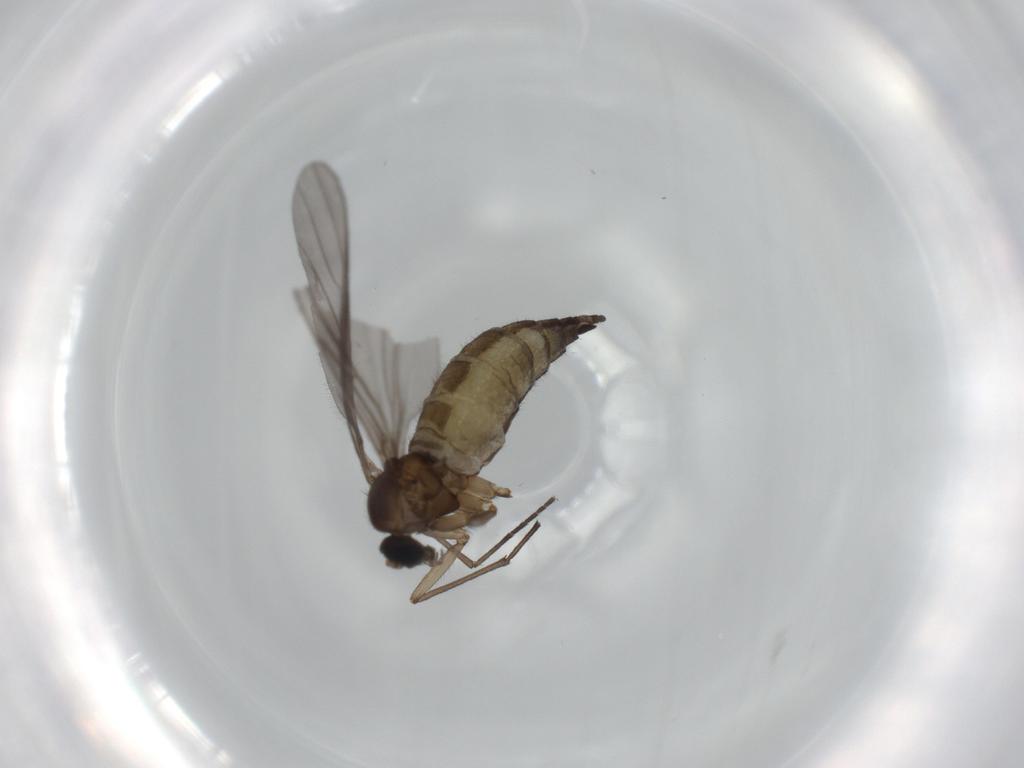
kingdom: Animalia
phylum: Arthropoda
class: Insecta
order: Diptera
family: Sciaridae
